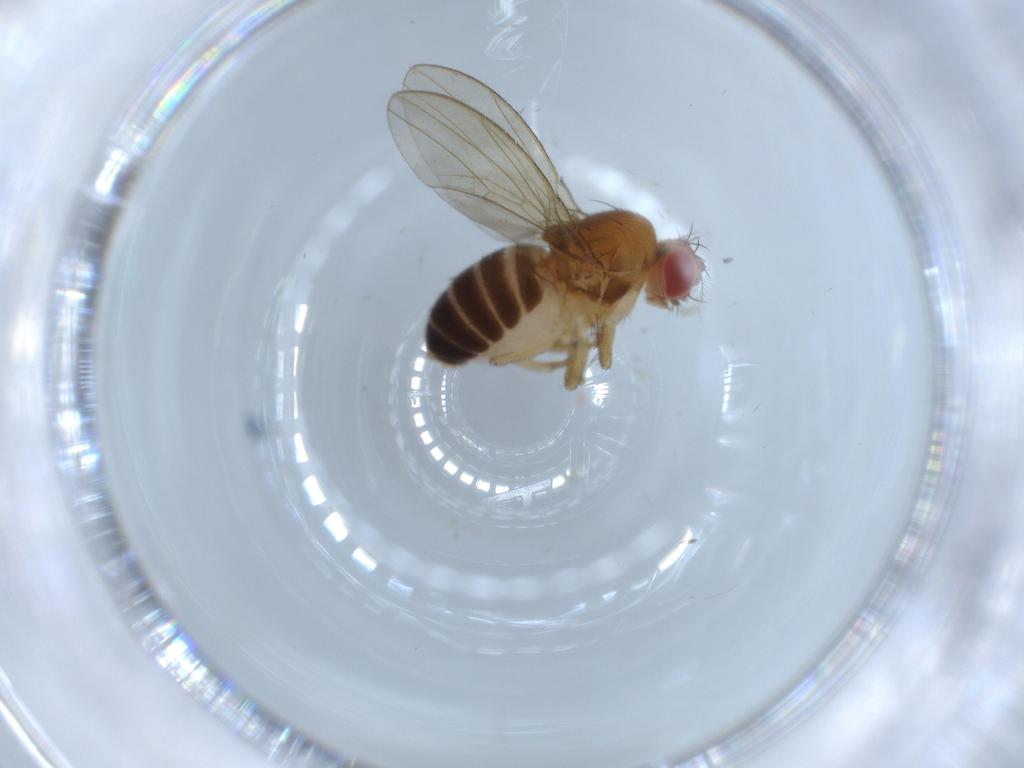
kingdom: Animalia
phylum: Arthropoda
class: Insecta
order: Diptera
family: Drosophilidae
